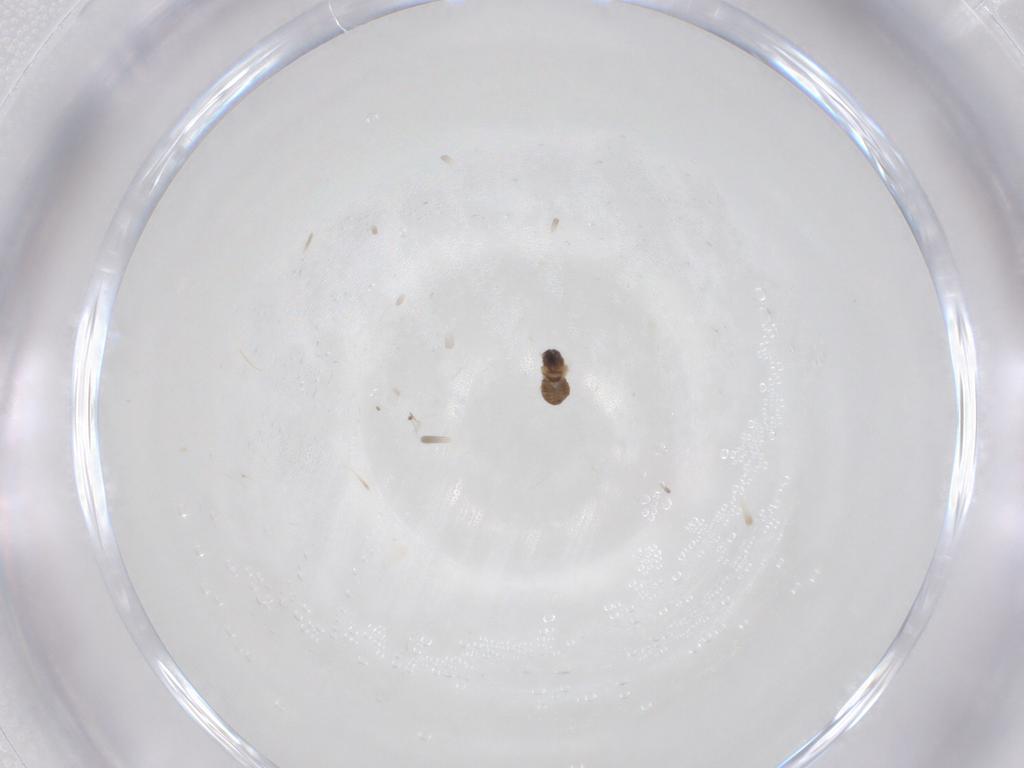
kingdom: Animalia
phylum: Arthropoda
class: Insecta
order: Diptera
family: Cecidomyiidae
